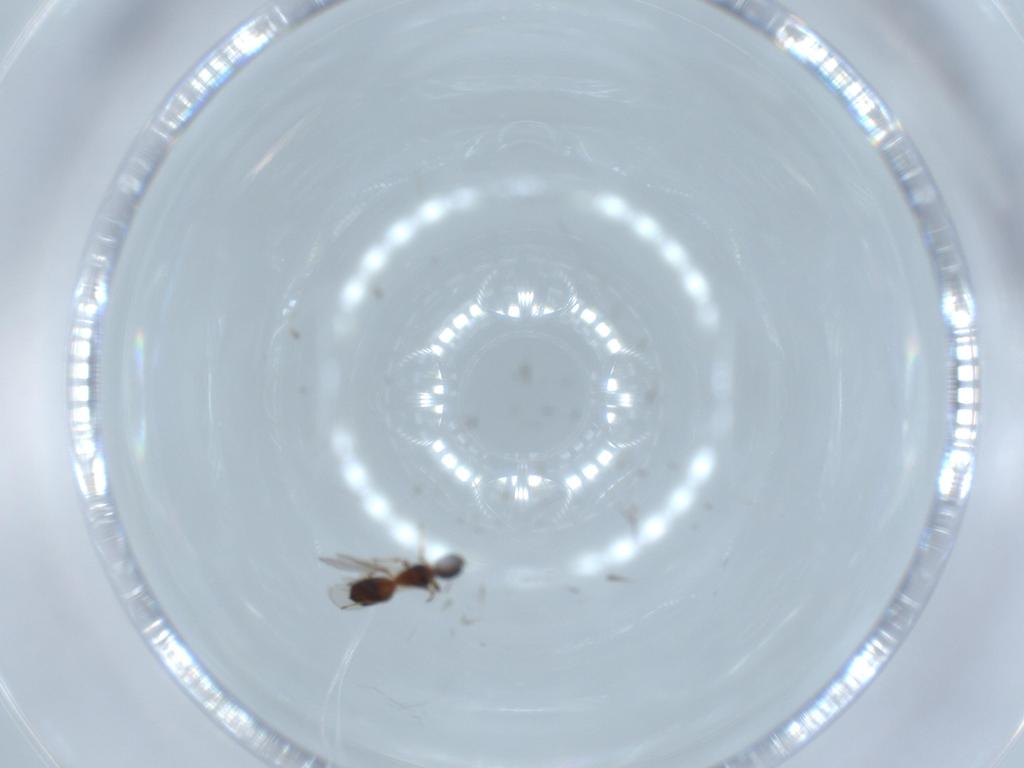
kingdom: Animalia
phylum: Arthropoda
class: Insecta
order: Hymenoptera
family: Diapriidae
